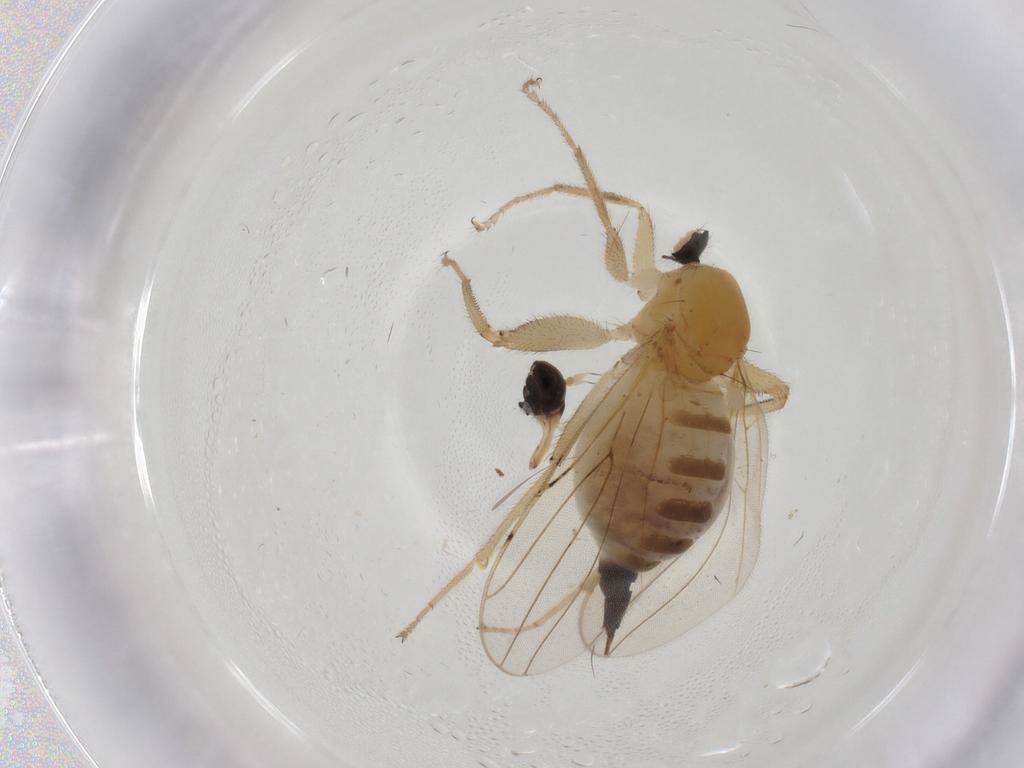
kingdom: Animalia
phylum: Arthropoda
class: Insecta
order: Diptera
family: Hybotidae
